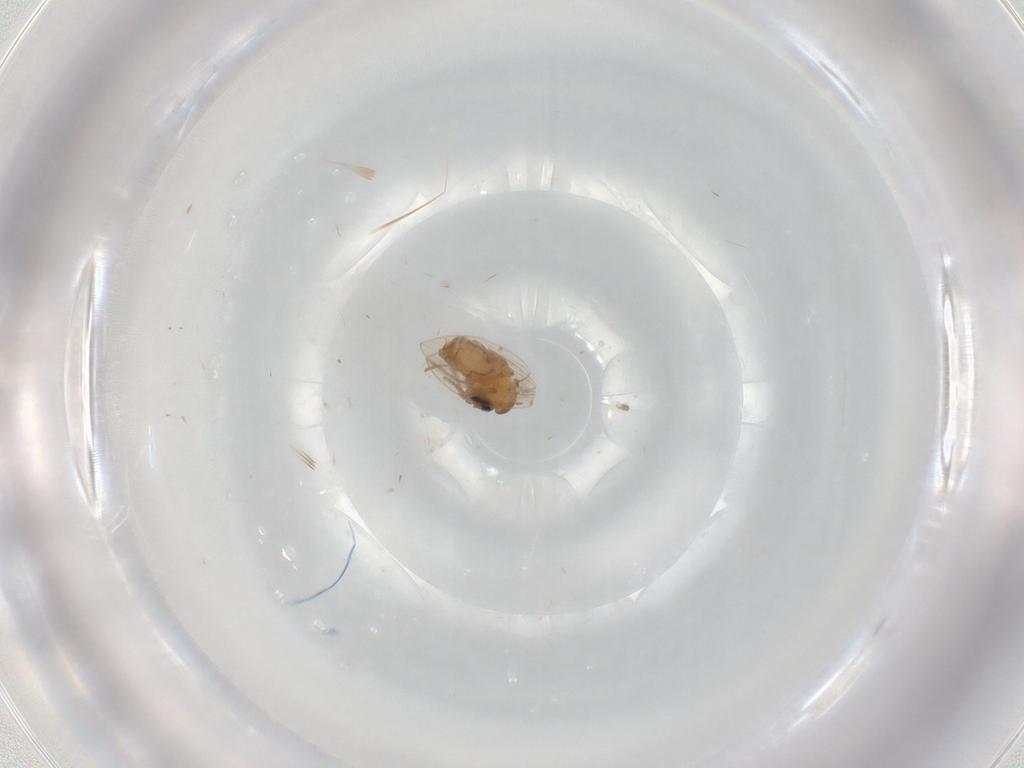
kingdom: Animalia
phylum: Arthropoda
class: Insecta
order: Diptera
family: Psychodidae
